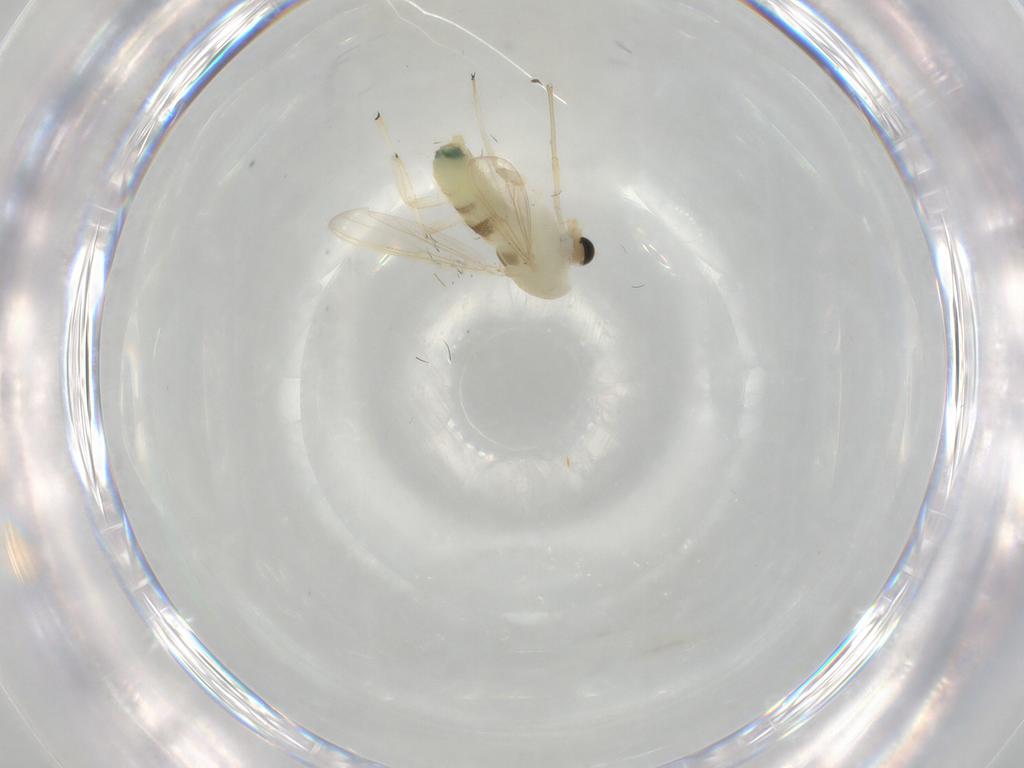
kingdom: Animalia
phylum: Arthropoda
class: Insecta
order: Diptera
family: Chironomidae
